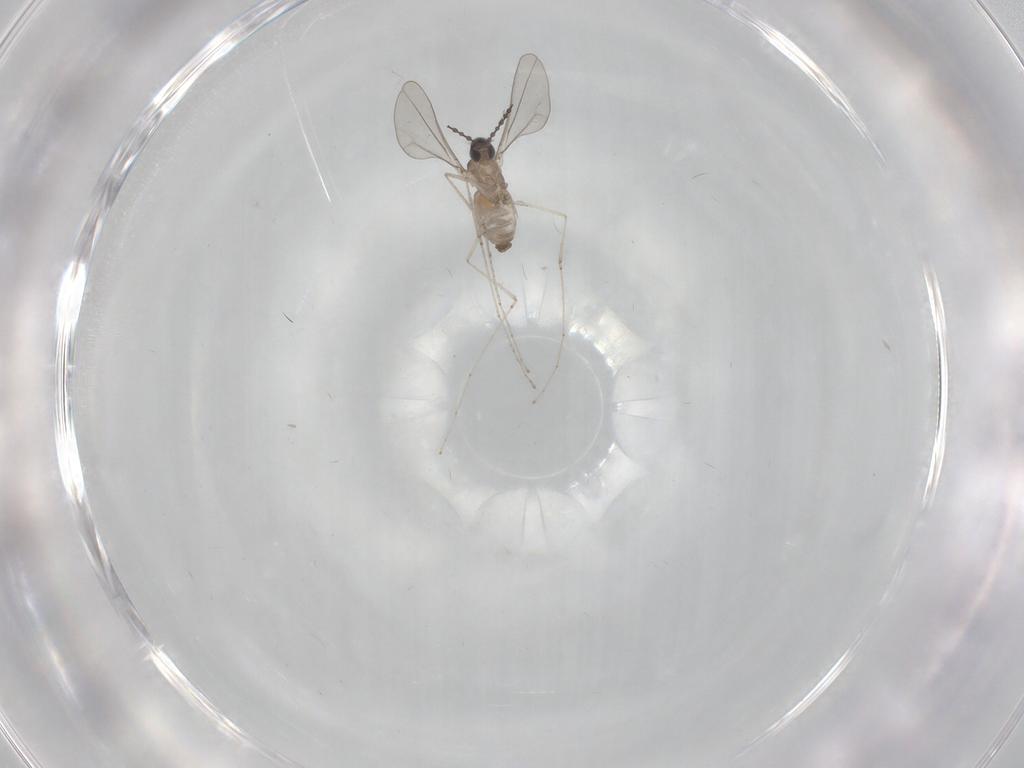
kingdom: Animalia
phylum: Arthropoda
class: Insecta
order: Diptera
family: Cecidomyiidae
